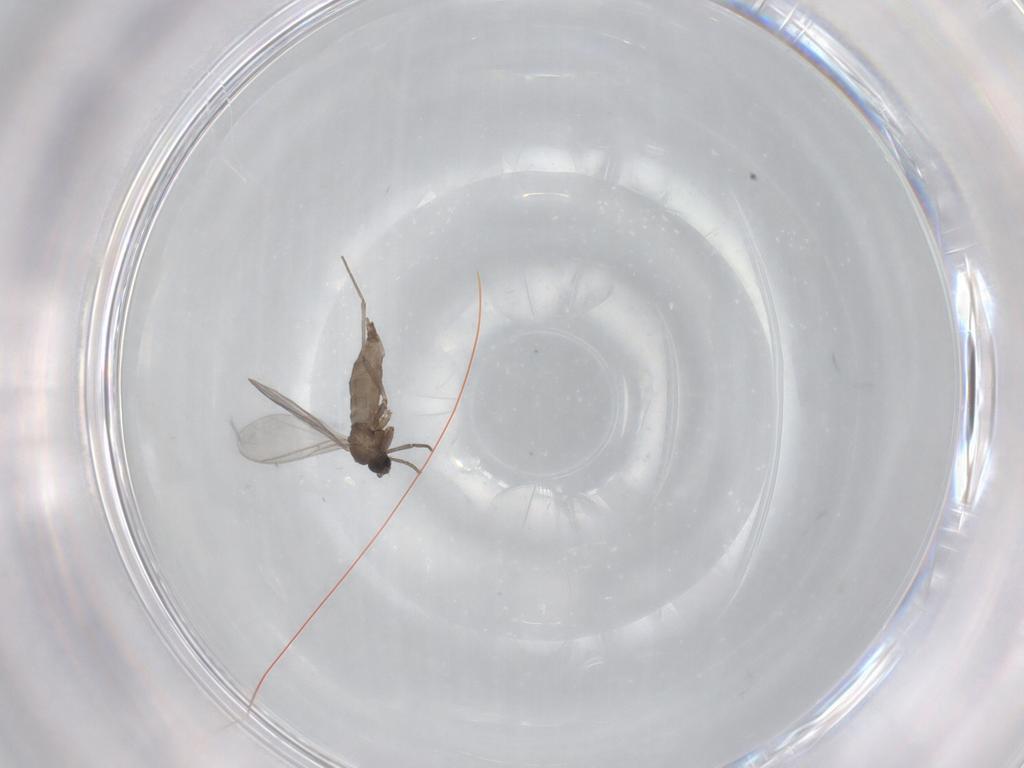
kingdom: Animalia
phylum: Arthropoda
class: Insecta
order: Diptera
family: Sciaridae
